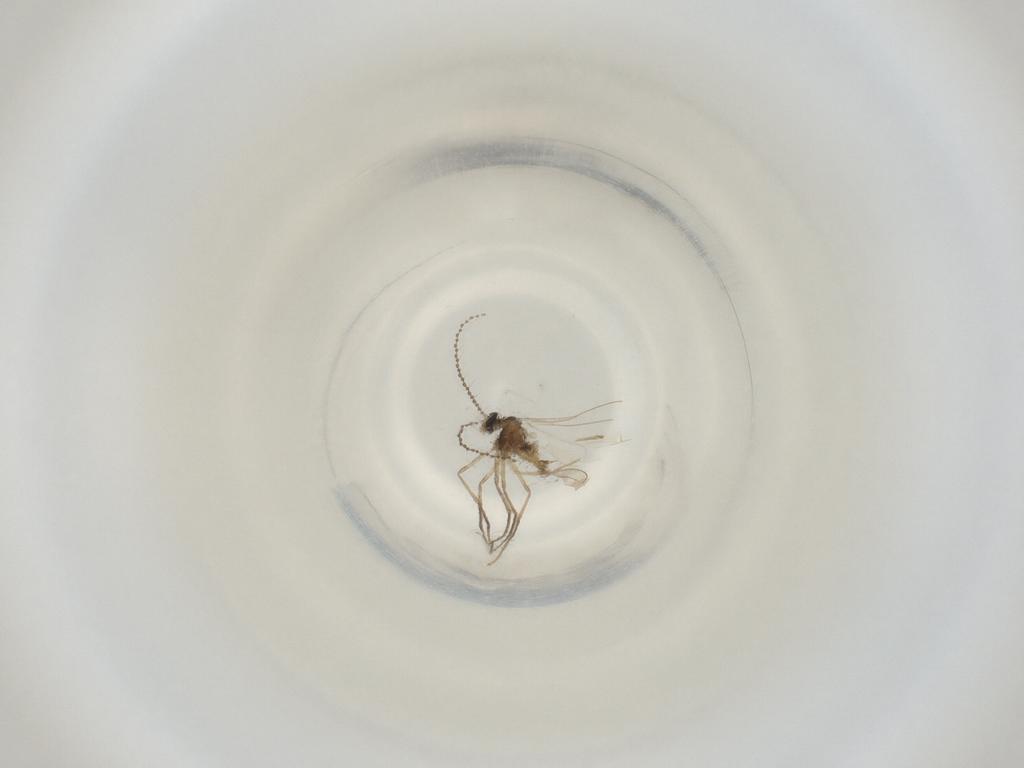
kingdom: Animalia
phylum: Arthropoda
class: Insecta
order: Diptera
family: Cecidomyiidae
